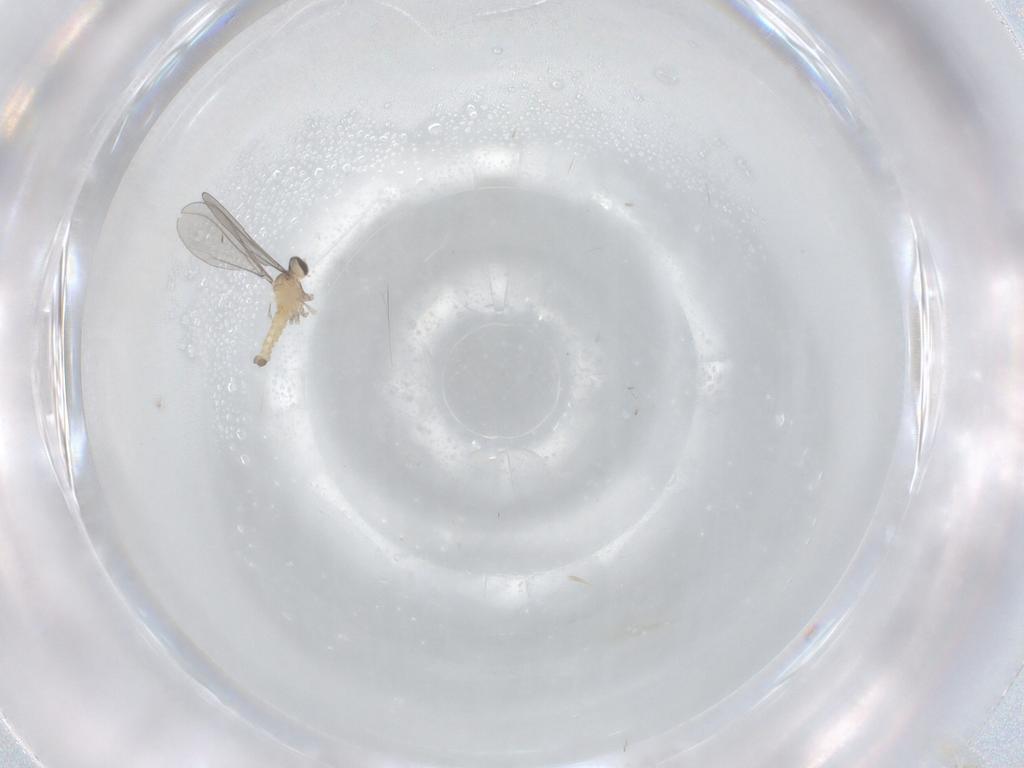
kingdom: Animalia
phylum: Arthropoda
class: Insecta
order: Diptera
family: Cecidomyiidae
